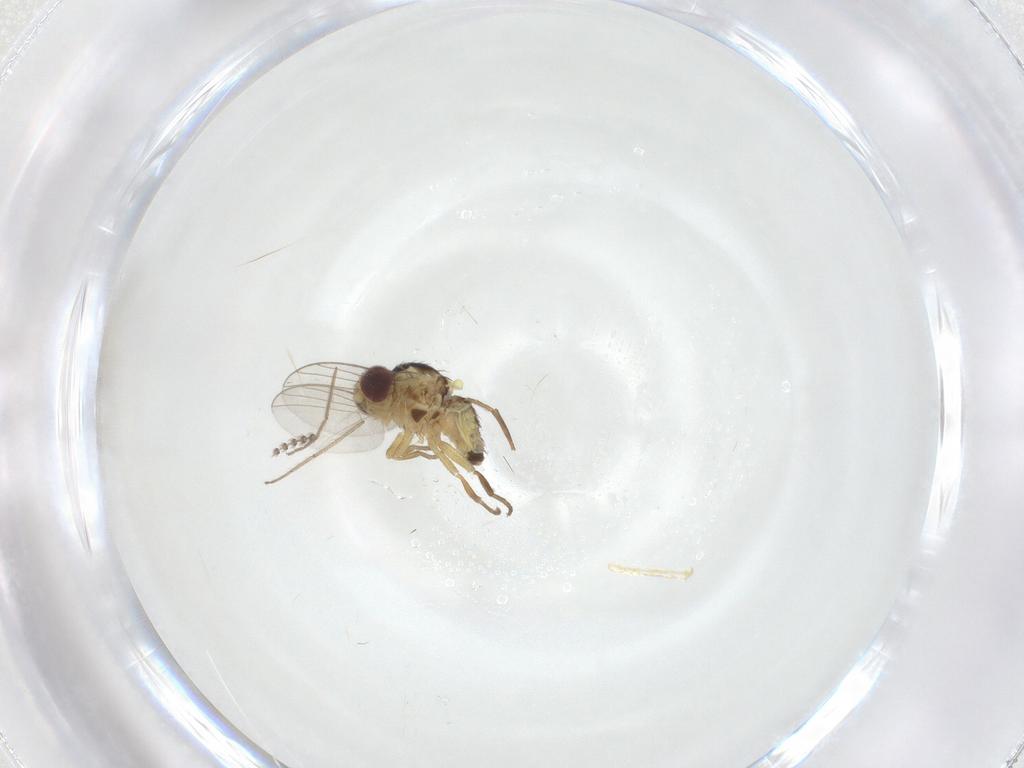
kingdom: Animalia
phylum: Arthropoda
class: Insecta
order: Diptera
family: Agromyzidae
